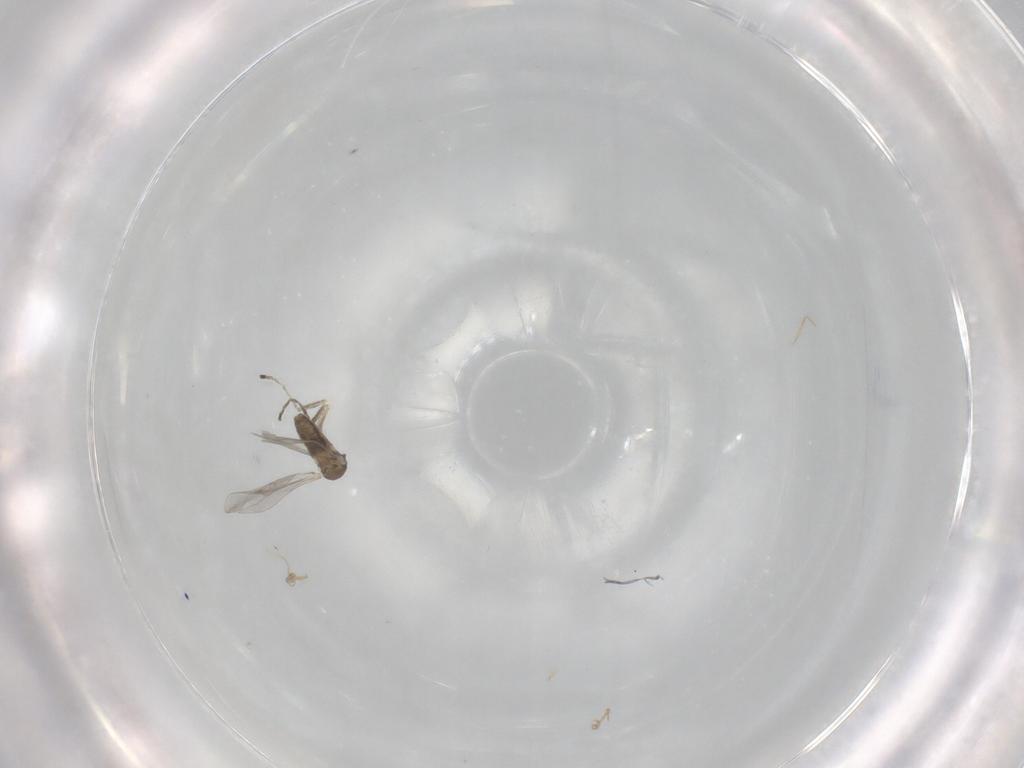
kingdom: Animalia
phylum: Arthropoda
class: Insecta
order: Diptera
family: Cecidomyiidae
